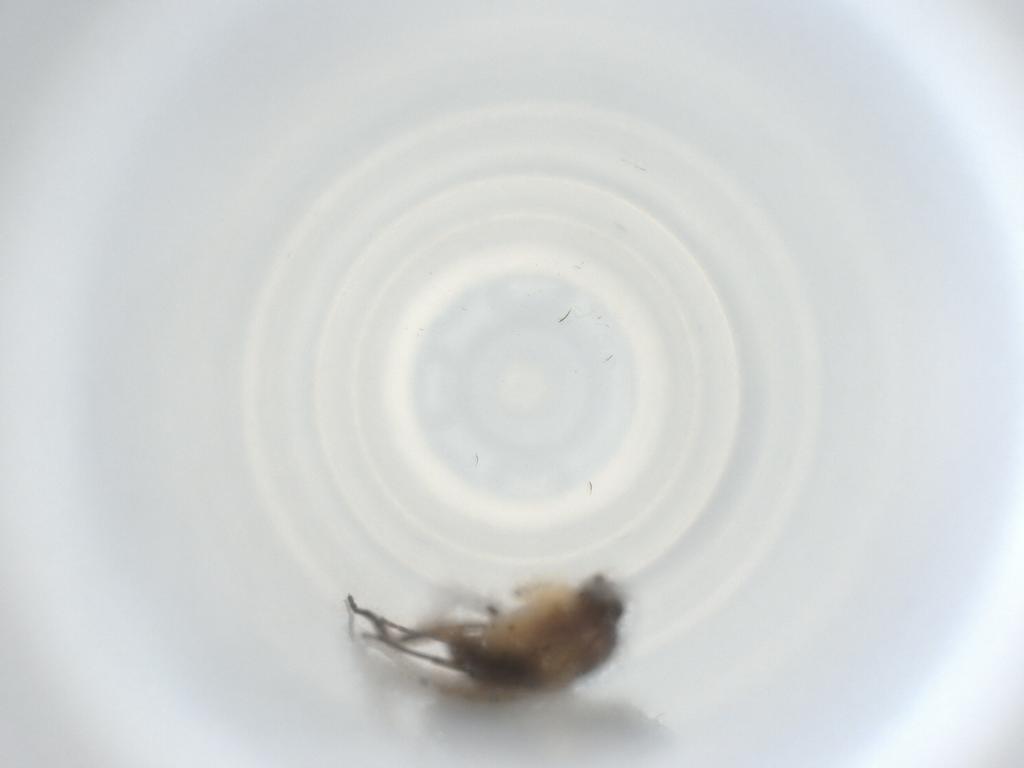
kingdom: Animalia
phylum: Arthropoda
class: Insecta
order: Diptera
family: Phoridae
